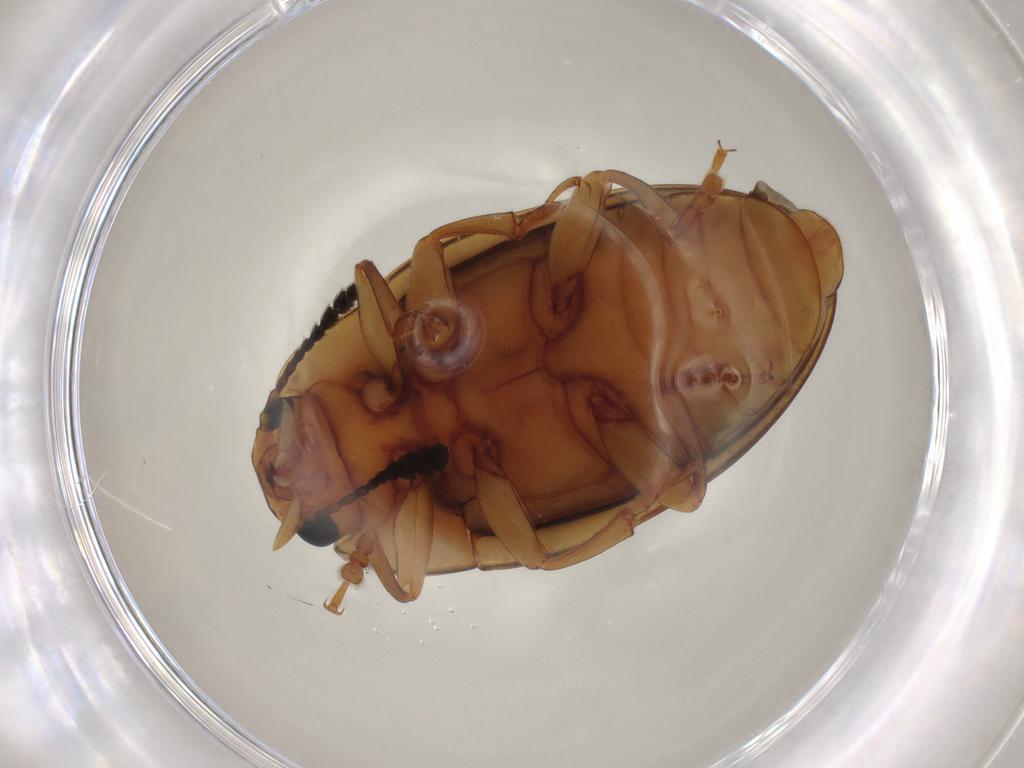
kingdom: Animalia
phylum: Arthropoda
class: Insecta
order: Coleoptera
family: Erotylidae
